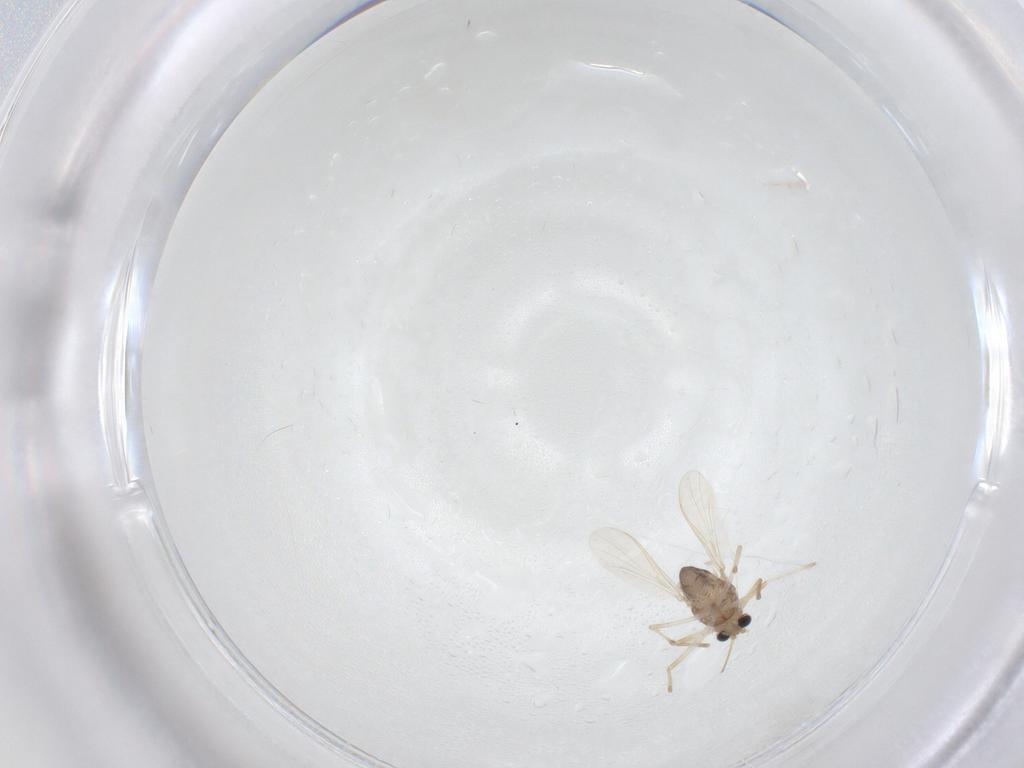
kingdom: Animalia
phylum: Arthropoda
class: Insecta
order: Diptera
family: Chironomidae
